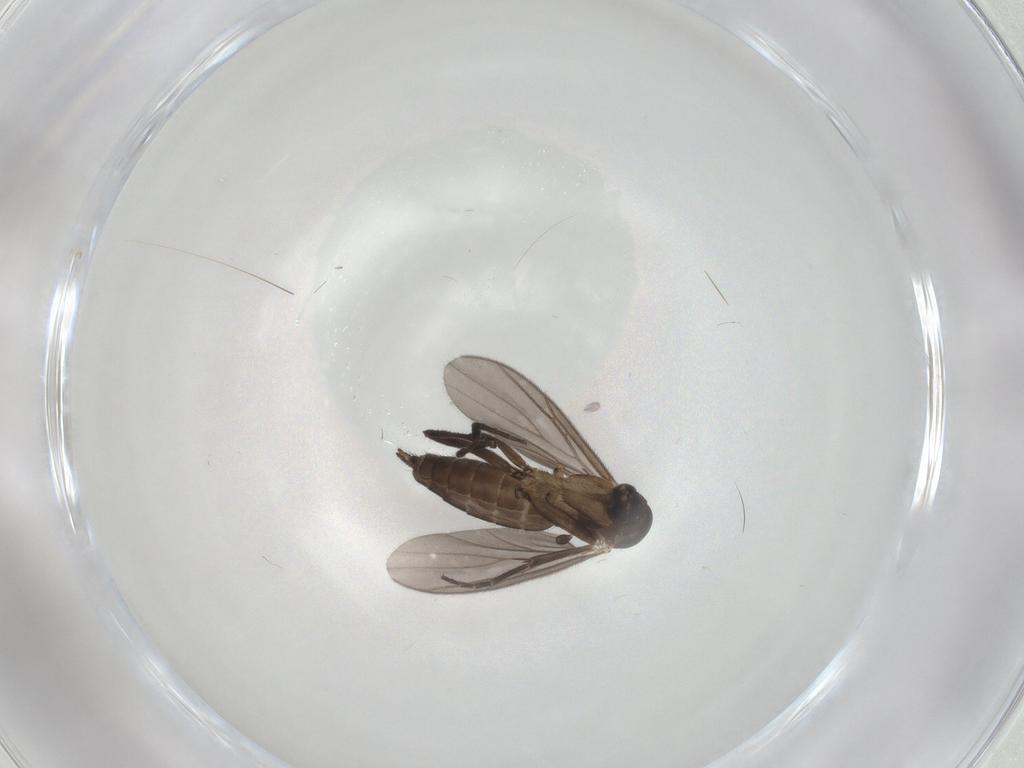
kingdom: Animalia
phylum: Arthropoda
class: Insecta
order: Diptera
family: Mycetophilidae
